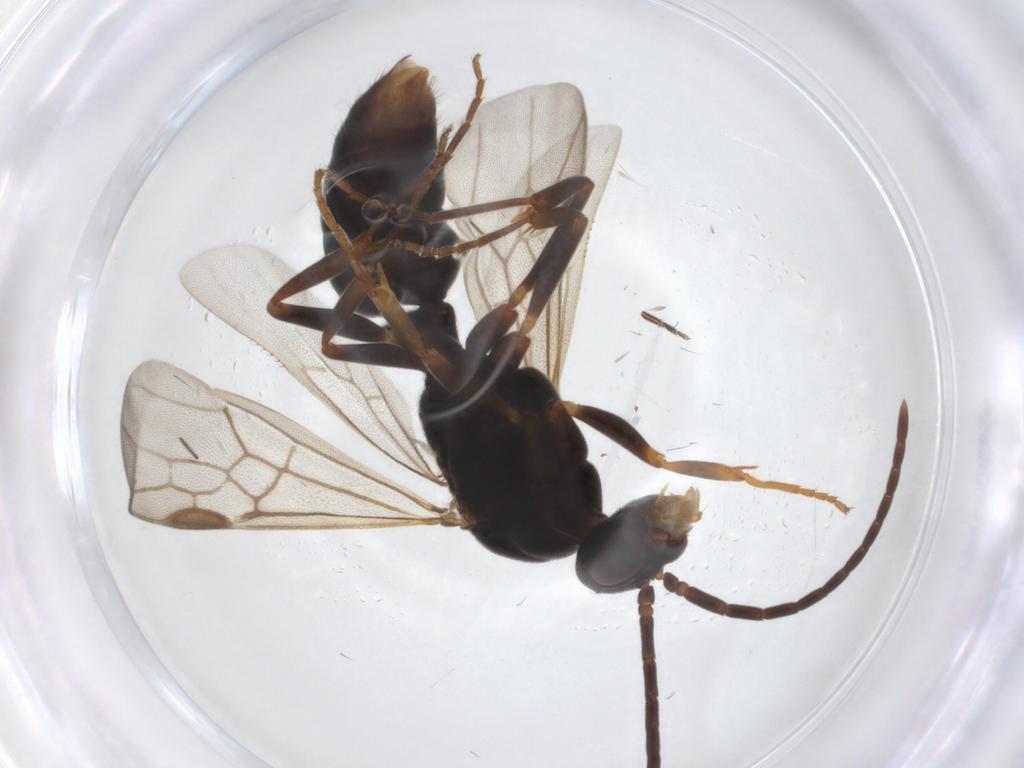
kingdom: Animalia
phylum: Arthropoda
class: Insecta
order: Hymenoptera
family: Formicidae
